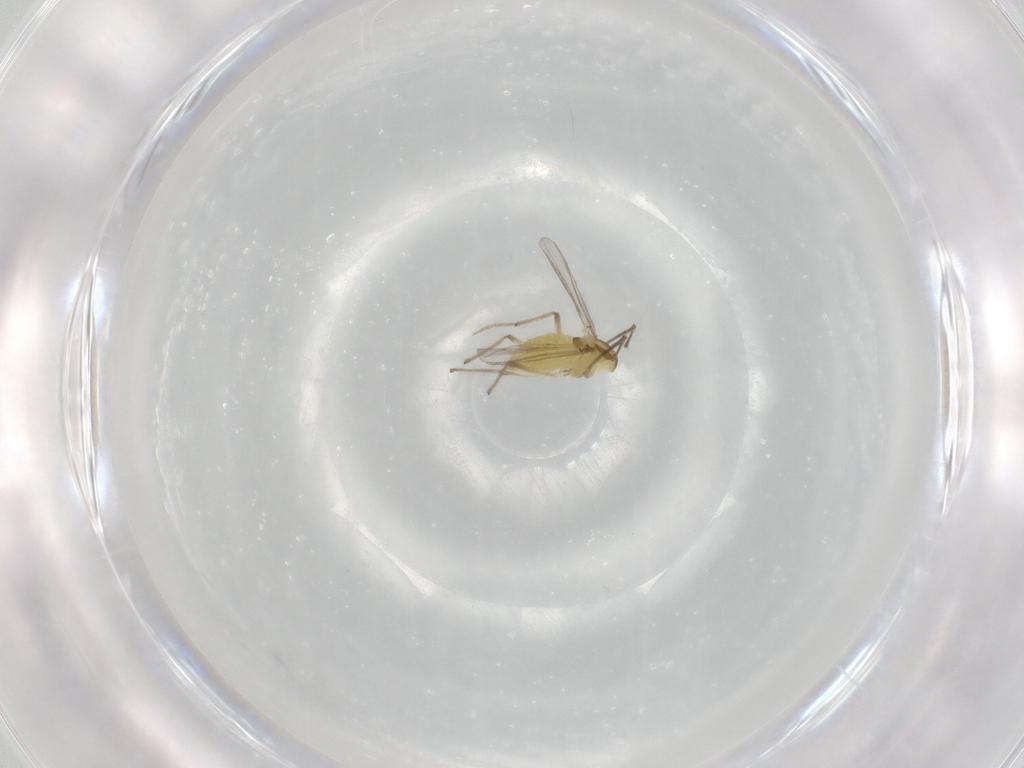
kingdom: Animalia
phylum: Arthropoda
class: Insecta
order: Diptera
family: Chironomidae
